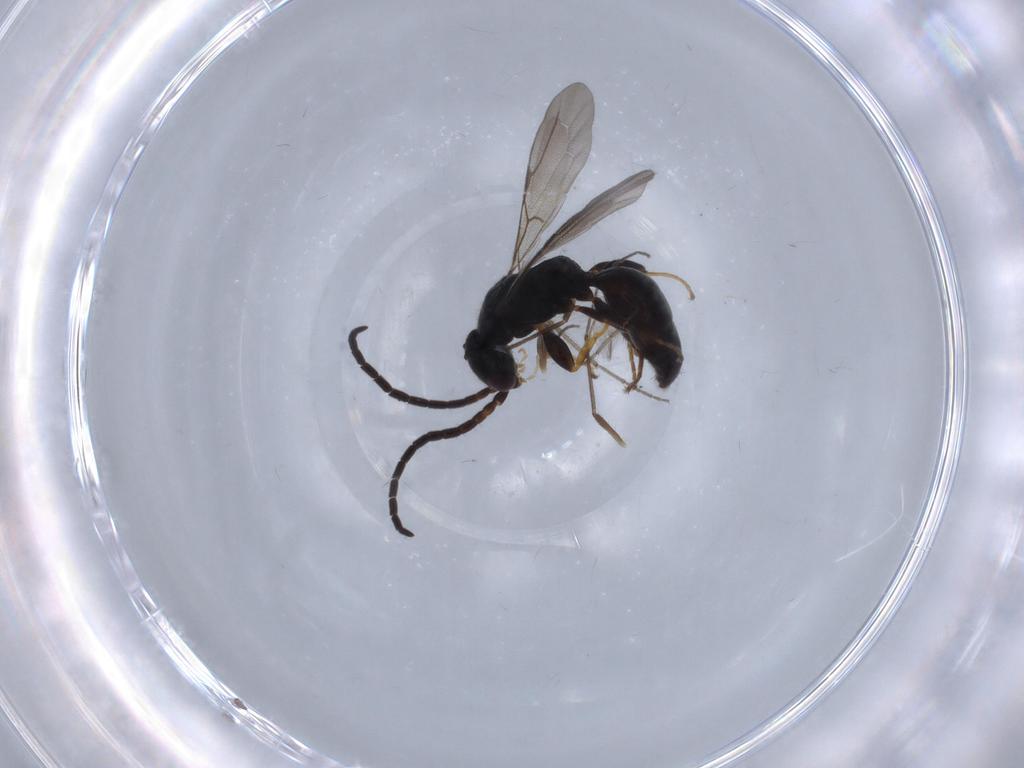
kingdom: Animalia
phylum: Arthropoda
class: Insecta
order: Hymenoptera
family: Bethylidae
